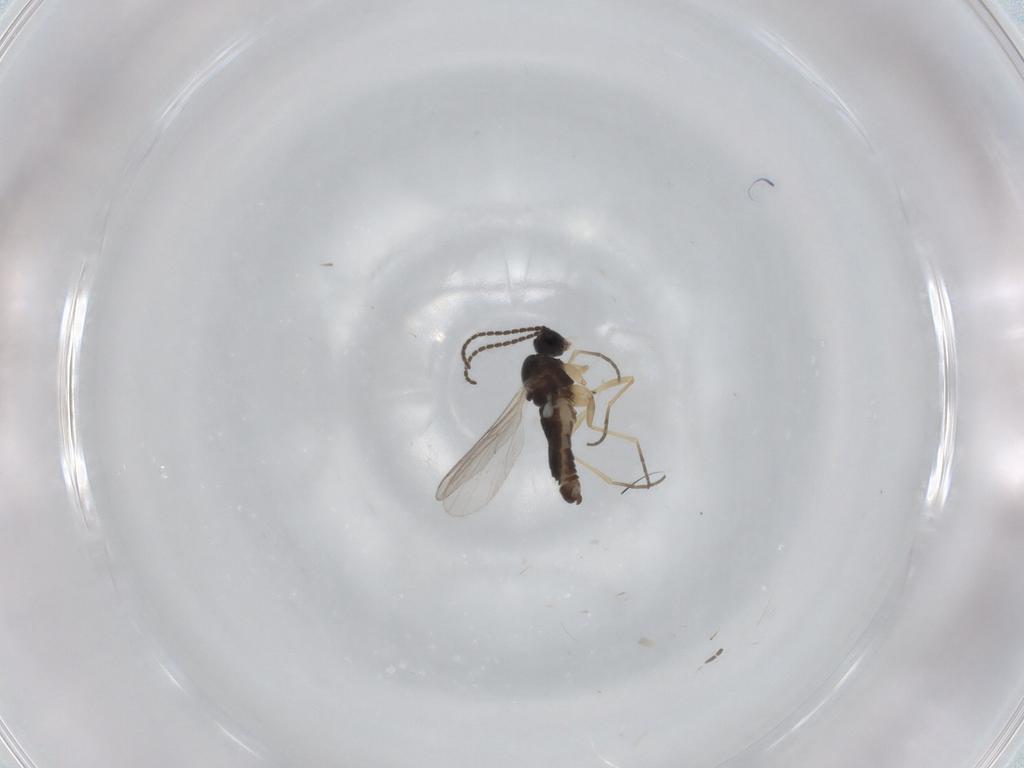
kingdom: Animalia
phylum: Arthropoda
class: Insecta
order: Diptera
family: Sciaridae
